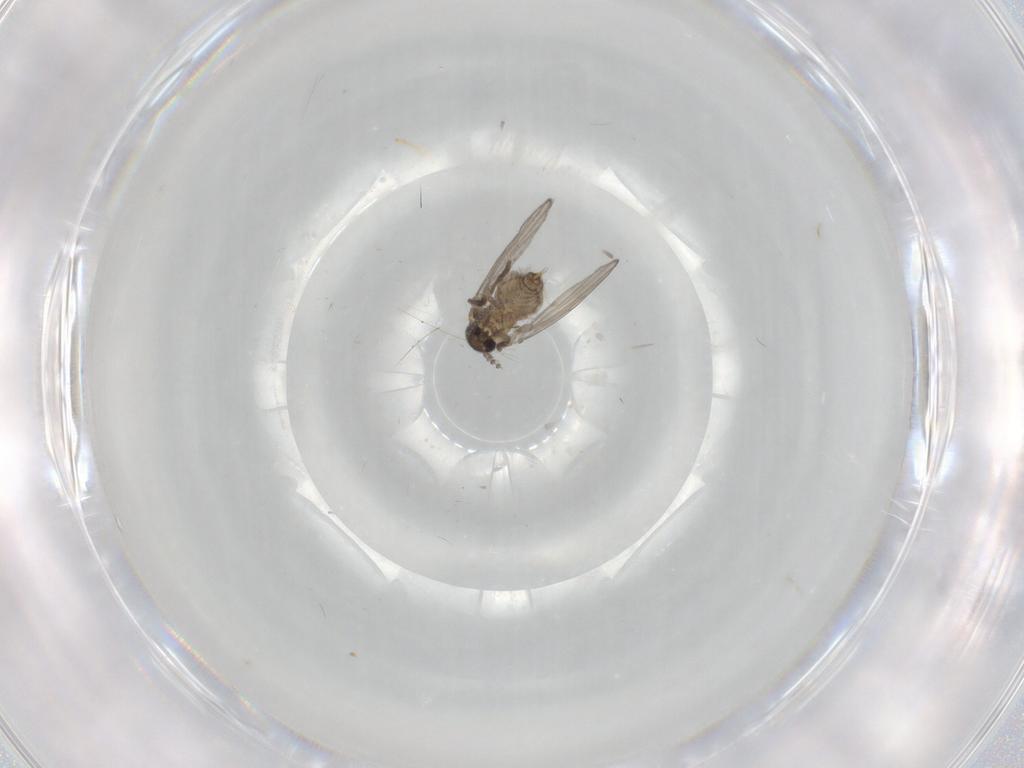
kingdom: Animalia
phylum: Arthropoda
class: Insecta
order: Diptera
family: Psychodidae
